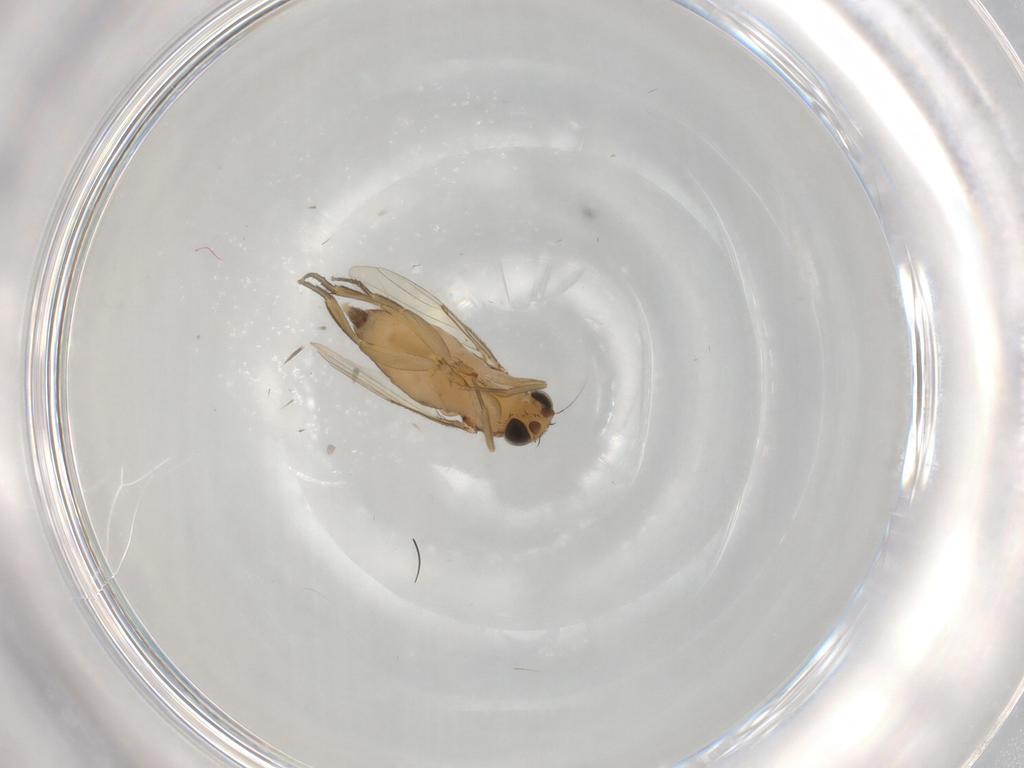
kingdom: Animalia
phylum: Arthropoda
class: Insecta
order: Diptera
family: Phoridae
